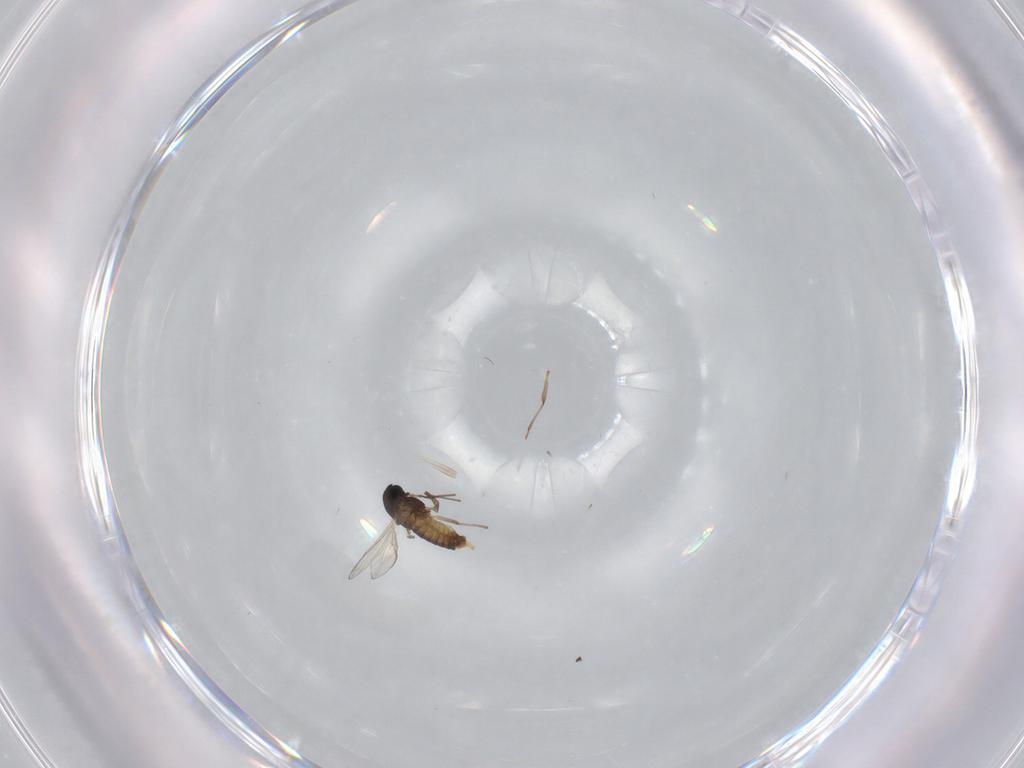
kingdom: Animalia
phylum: Arthropoda
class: Insecta
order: Diptera
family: Chironomidae
